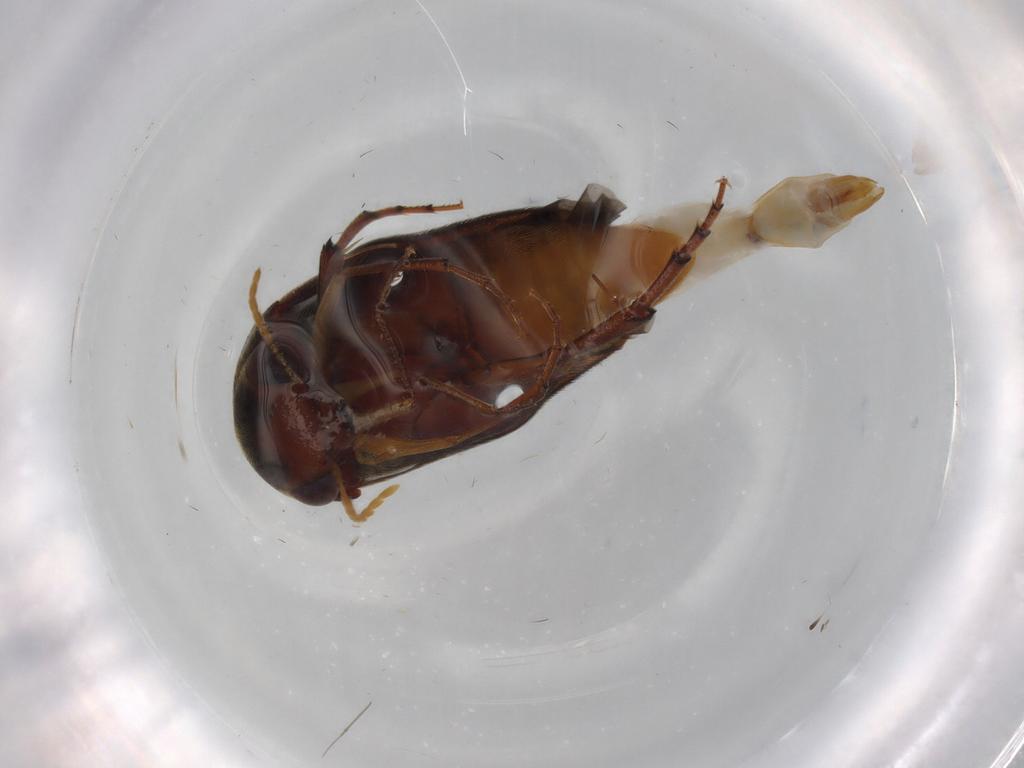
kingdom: Animalia
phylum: Arthropoda
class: Insecta
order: Coleoptera
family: Mordellidae
